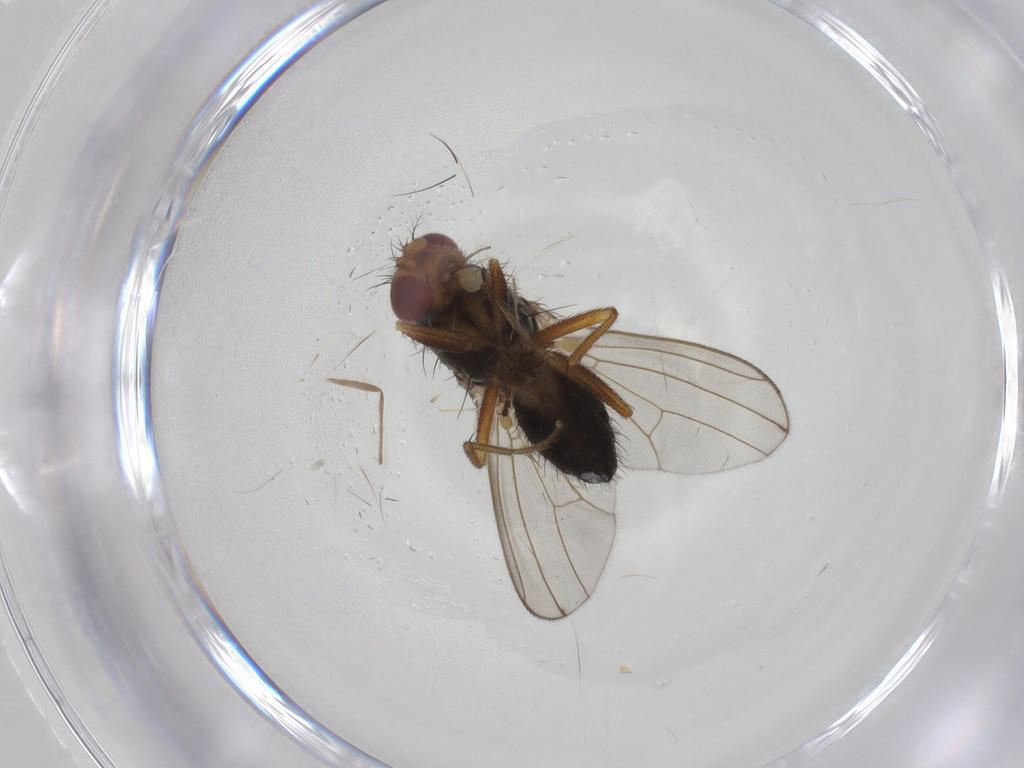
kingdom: Animalia
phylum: Arthropoda
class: Insecta
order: Diptera
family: Drosophilidae
